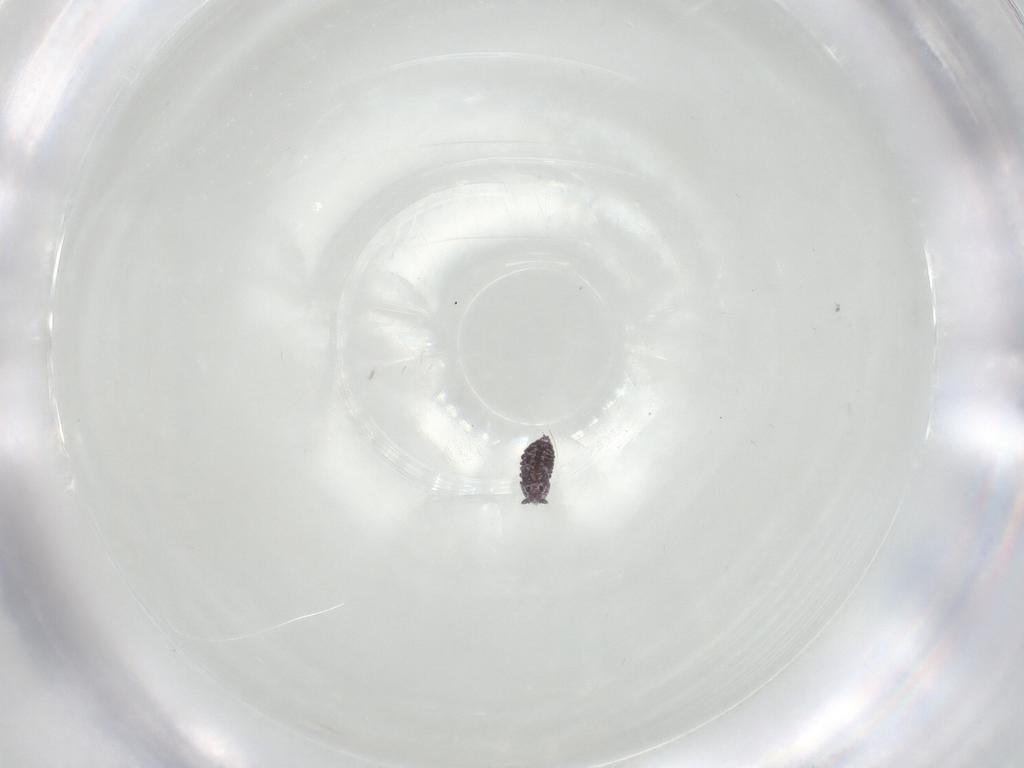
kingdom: Animalia
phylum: Arthropoda
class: Collembola
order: Poduromorpha
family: Hypogastruridae
